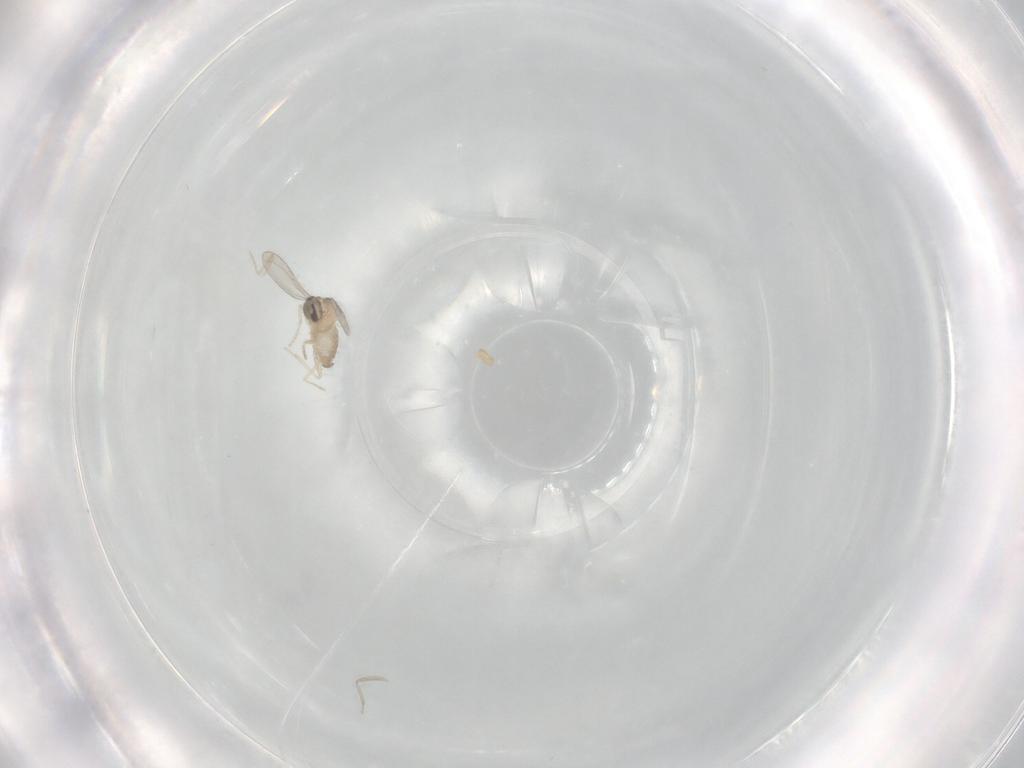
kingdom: Animalia
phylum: Arthropoda
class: Insecta
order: Diptera
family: Cecidomyiidae
